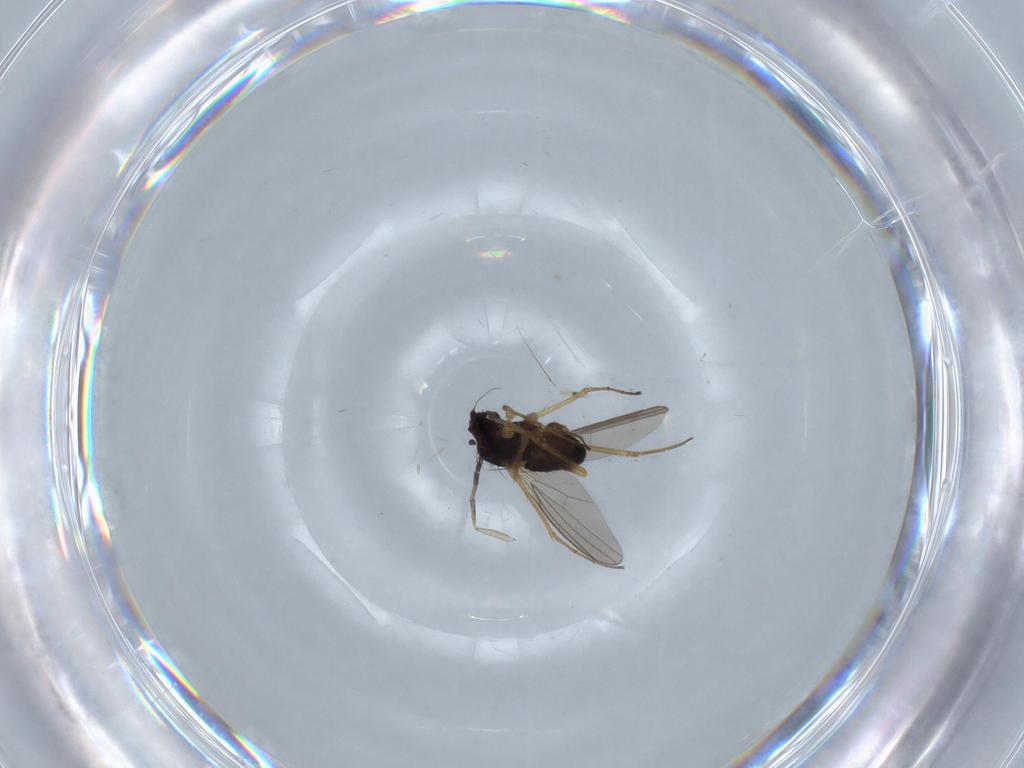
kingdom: Animalia
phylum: Arthropoda
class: Insecta
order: Diptera
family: Dolichopodidae
